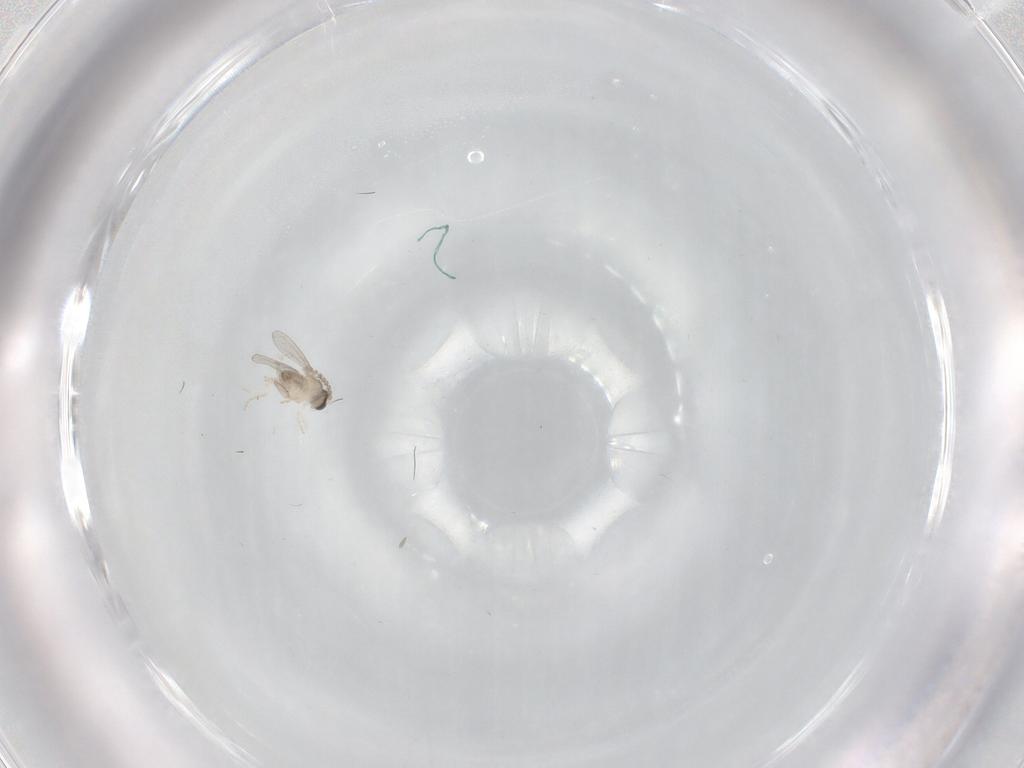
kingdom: Animalia
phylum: Arthropoda
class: Insecta
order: Diptera
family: Cecidomyiidae
